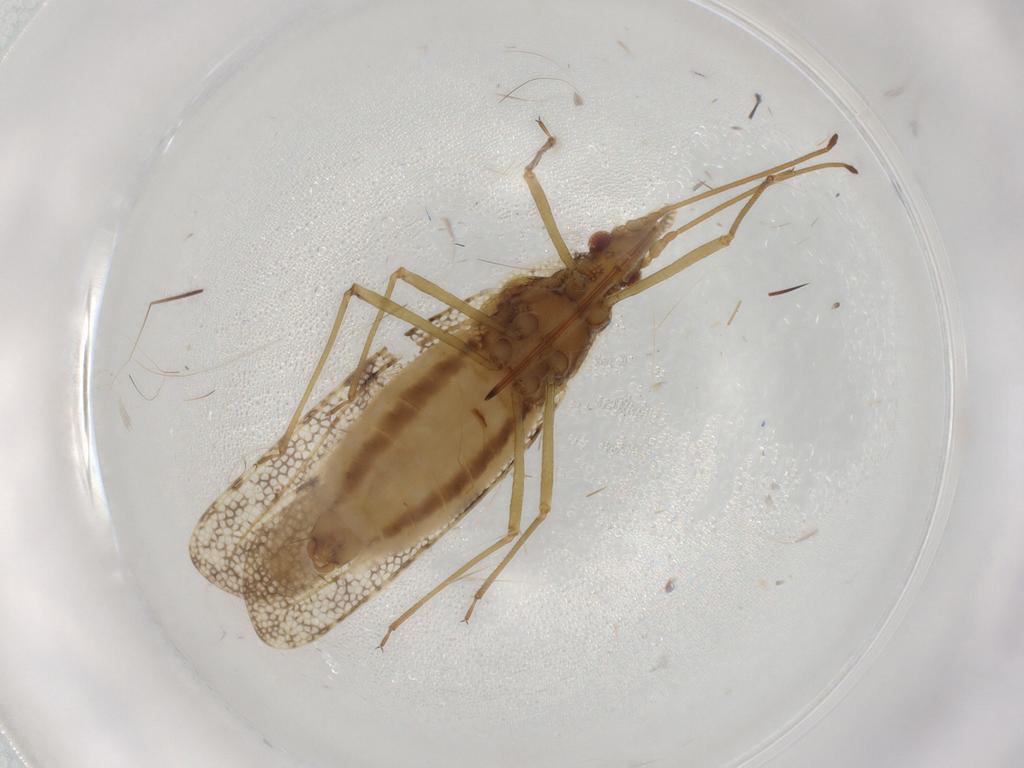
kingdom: Animalia
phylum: Arthropoda
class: Insecta
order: Hemiptera
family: Tingidae
